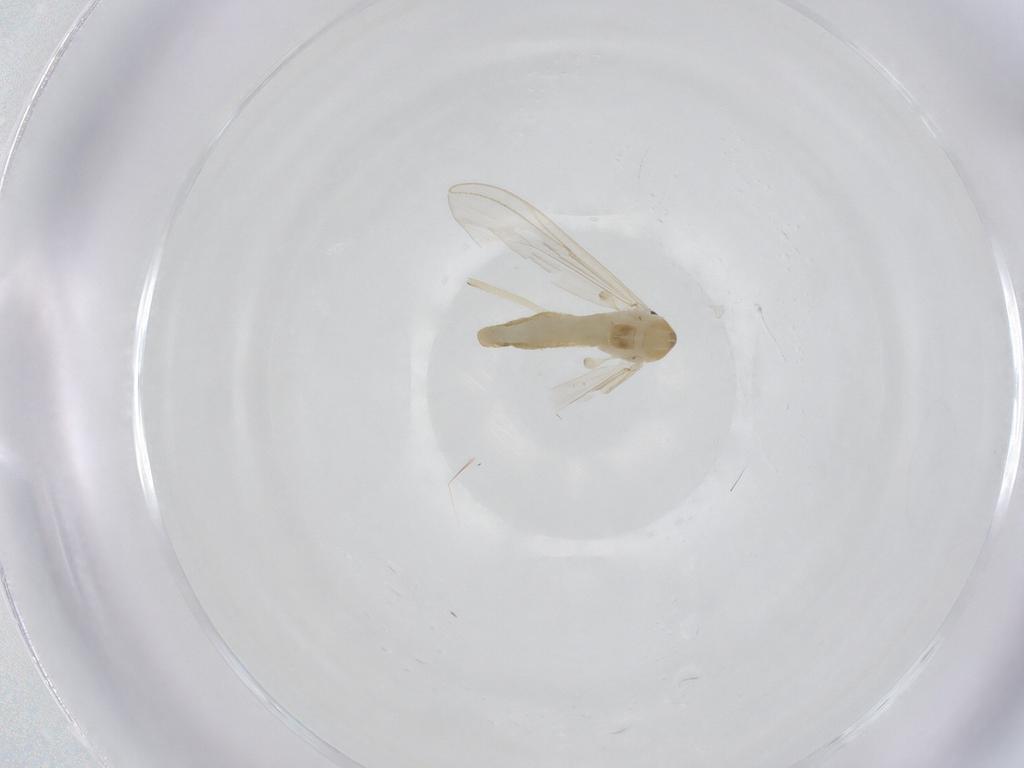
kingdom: Animalia
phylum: Arthropoda
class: Insecta
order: Diptera
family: Chironomidae
